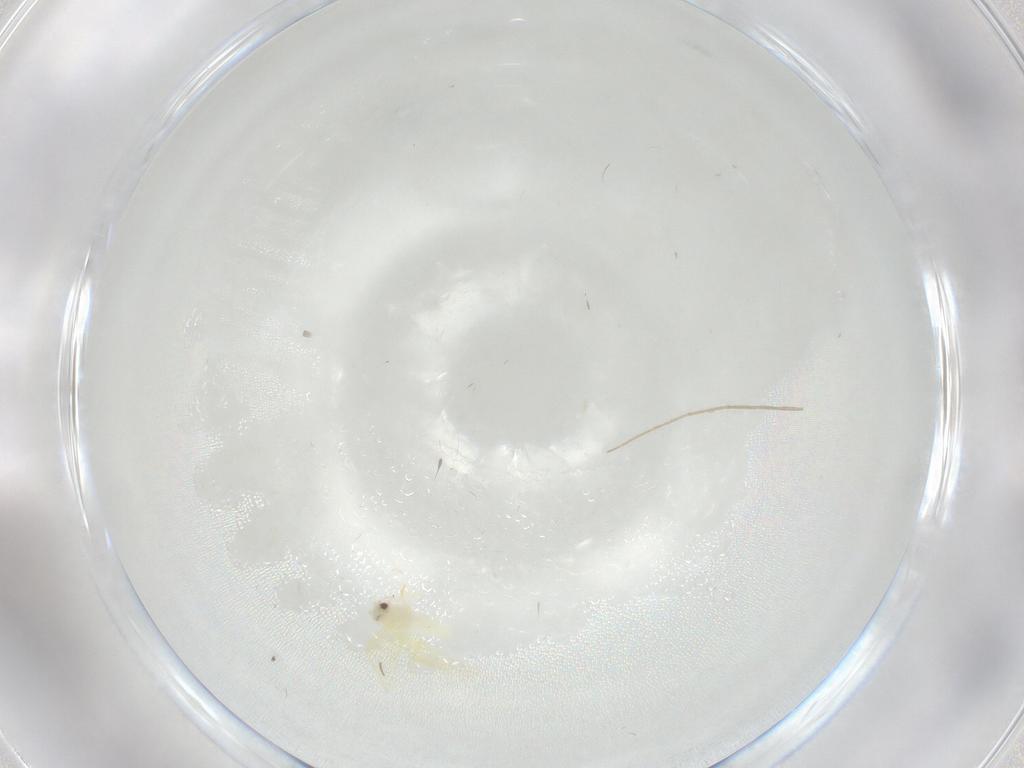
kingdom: Animalia
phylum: Arthropoda
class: Insecta
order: Hemiptera
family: Aleyrodidae
